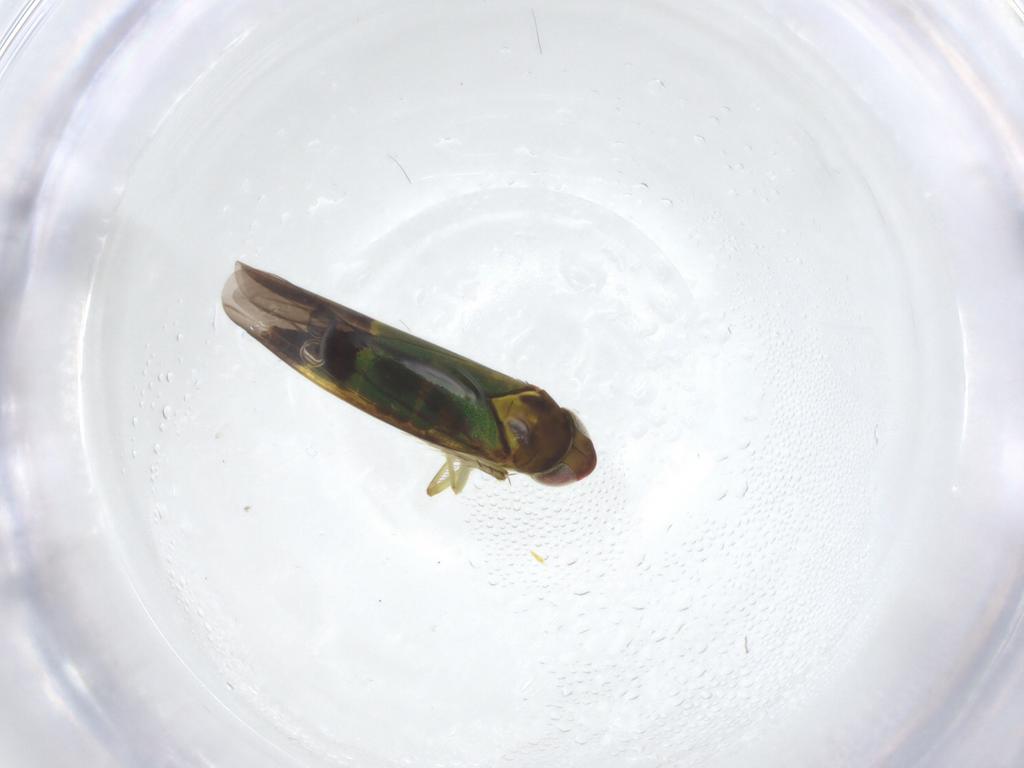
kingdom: Animalia
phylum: Arthropoda
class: Insecta
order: Hemiptera
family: Cicadellidae
